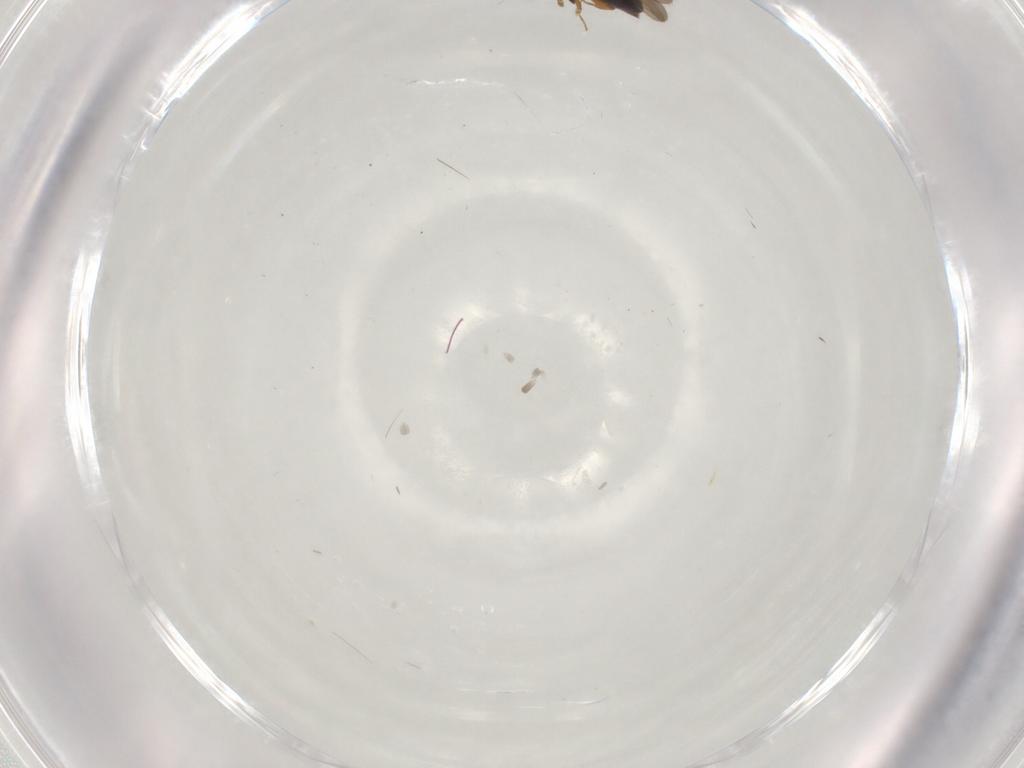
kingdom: Animalia
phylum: Arthropoda
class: Insecta
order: Hymenoptera
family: Ceraphronidae
